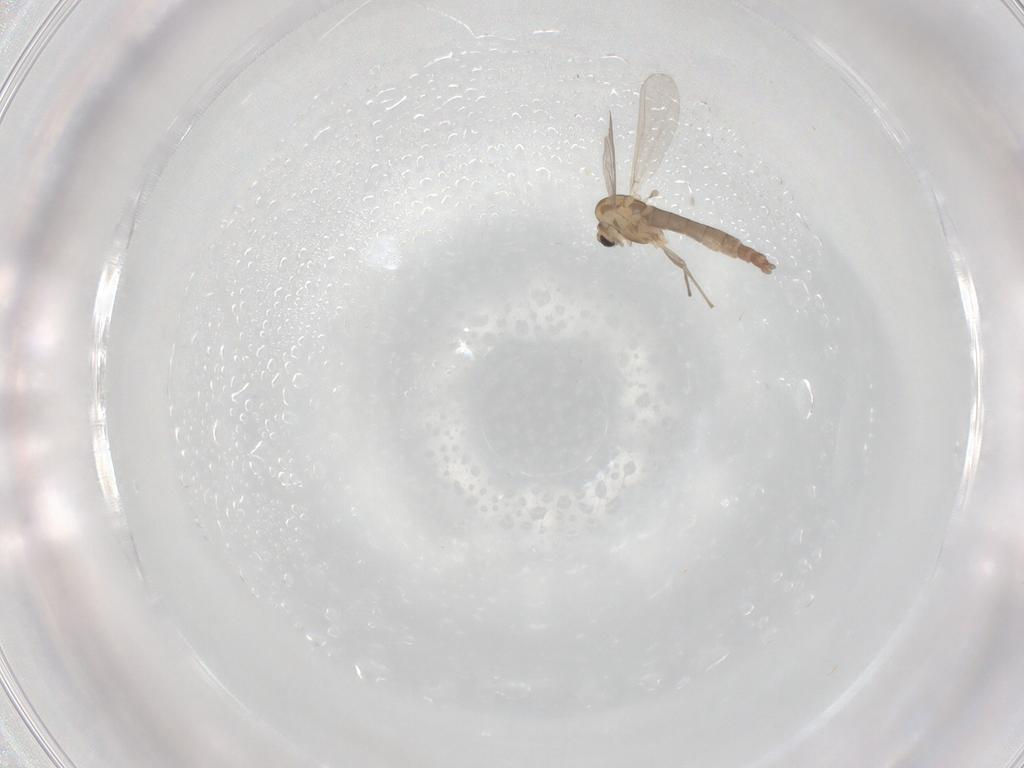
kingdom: Animalia
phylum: Arthropoda
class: Insecta
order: Diptera
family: Chironomidae
